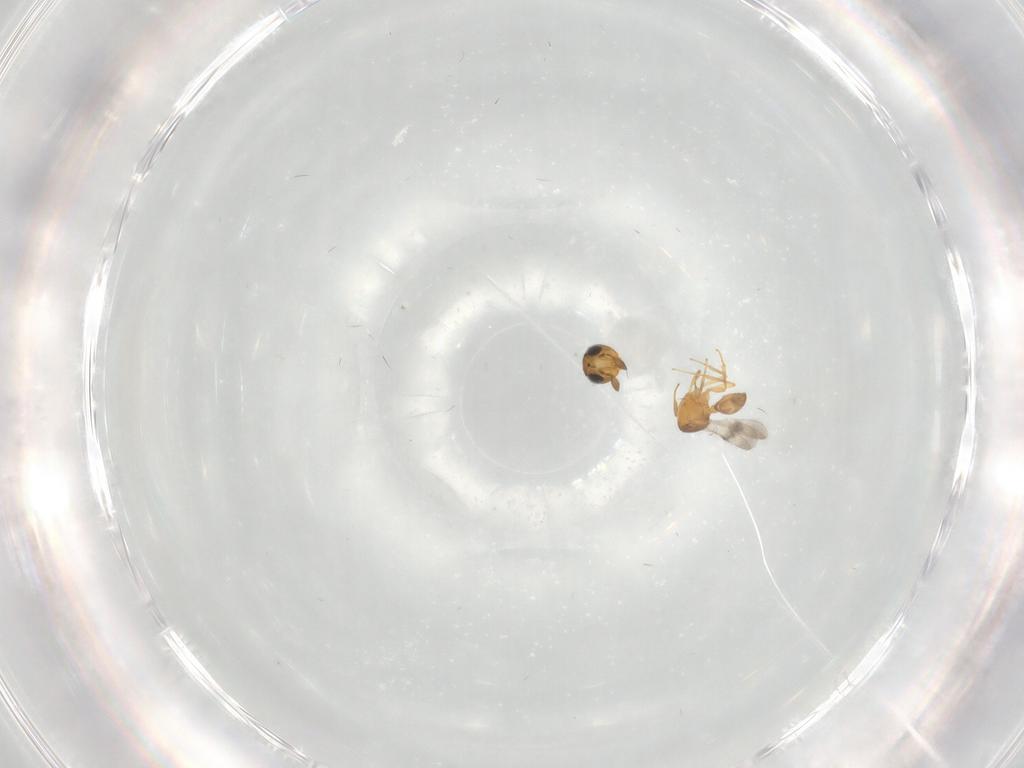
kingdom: Animalia
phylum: Arthropoda
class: Insecta
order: Hymenoptera
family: Scelionidae
